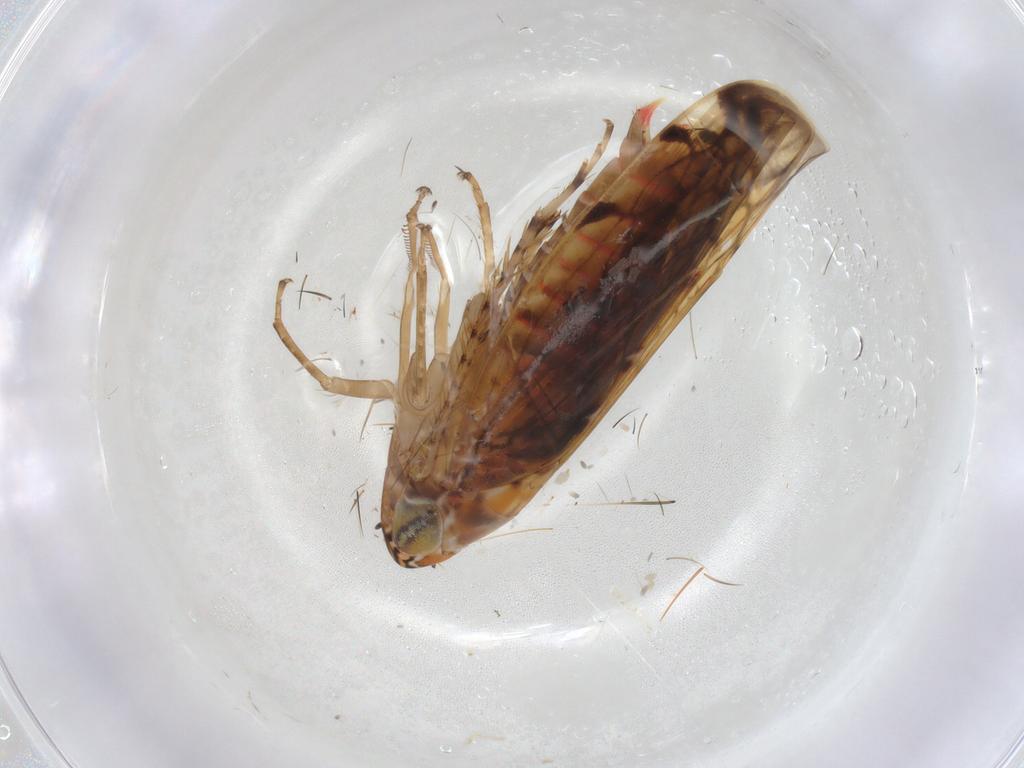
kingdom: Animalia
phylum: Arthropoda
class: Insecta
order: Hemiptera
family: Cicadellidae
